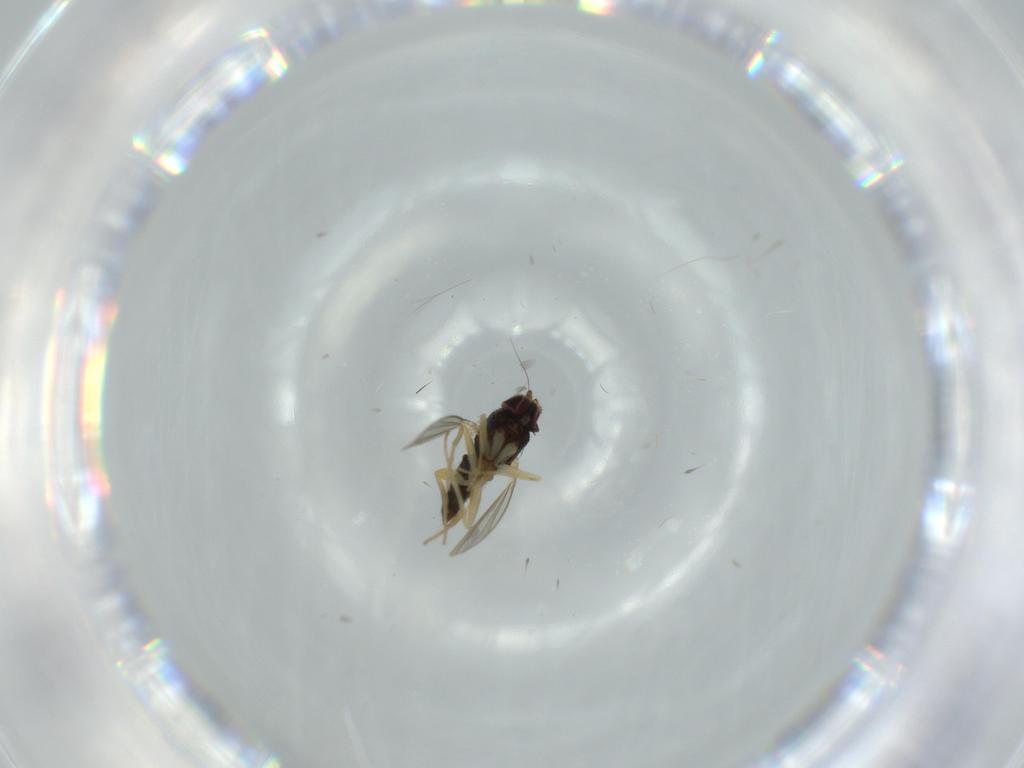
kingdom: Animalia
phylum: Arthropoda
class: Insecta
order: Diptera
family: Dolichopodidae
